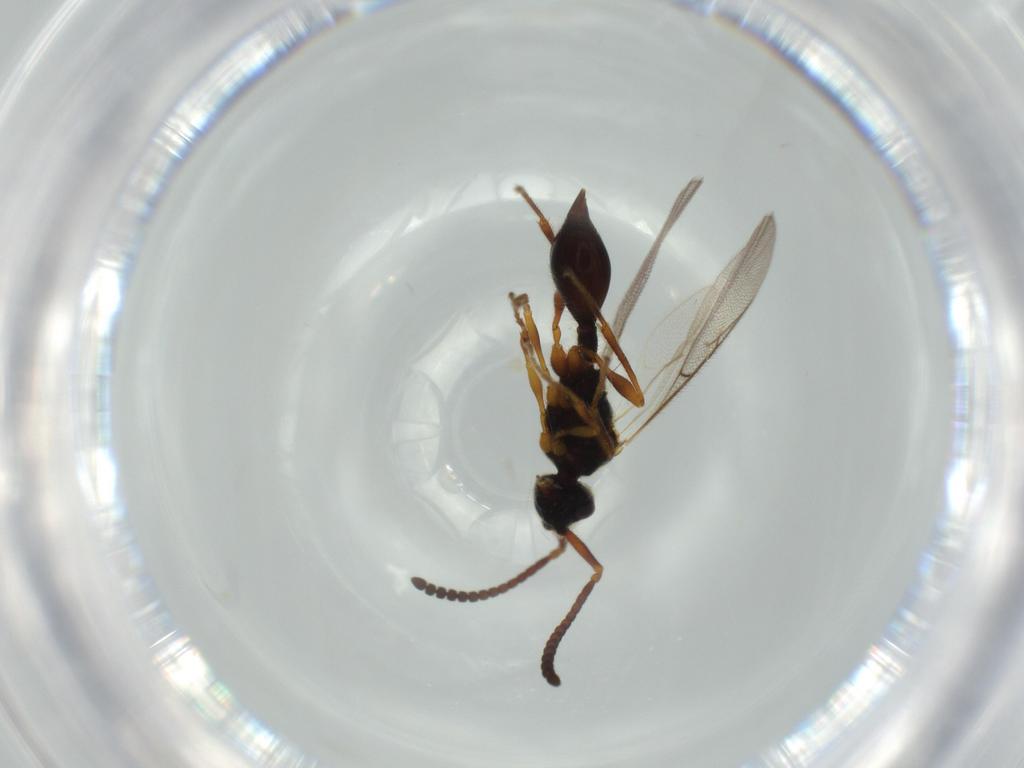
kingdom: Animalia
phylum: Arthropoda
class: Insecta
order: Hymenoptera
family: Diapriidae
